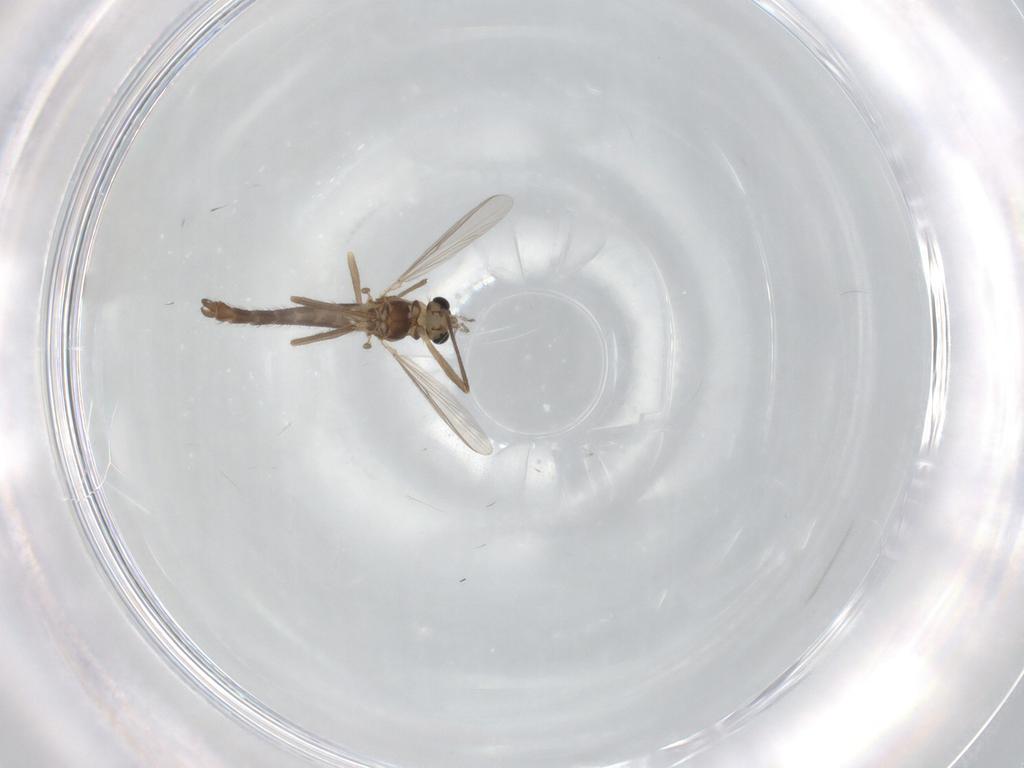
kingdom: Animalia
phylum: Arthropoda
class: Insecta
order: Diptera
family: Chironomidae
